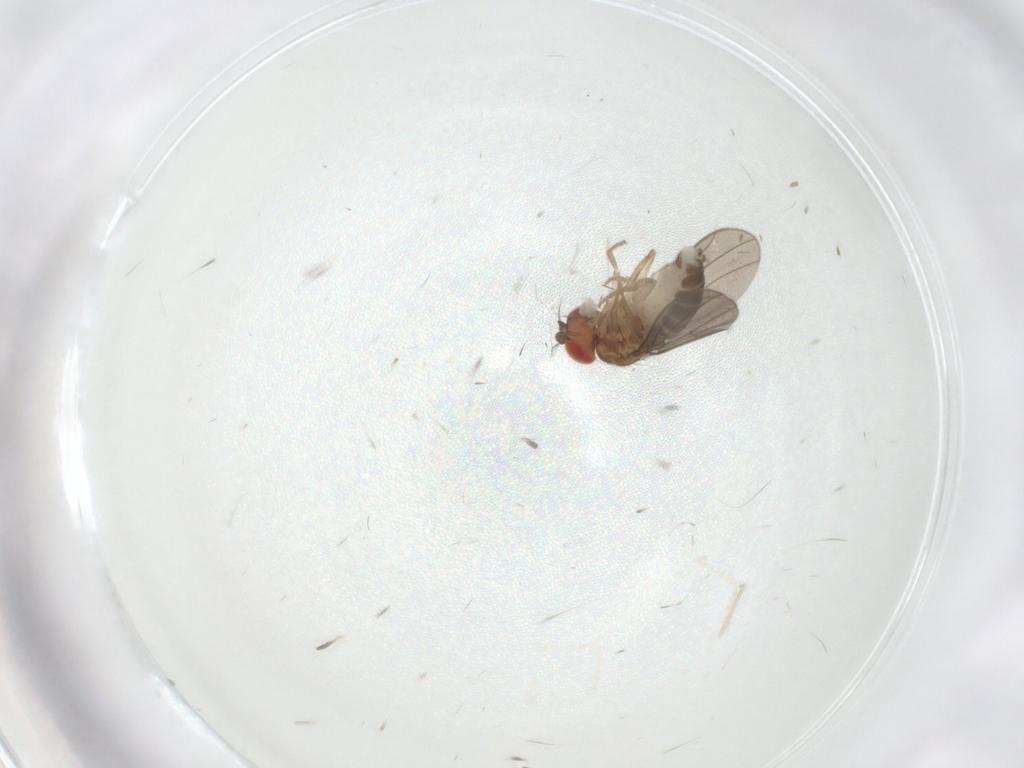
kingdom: Animalia
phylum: Arthropoda
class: Insecta
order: Diptera
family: Drosophilidae
